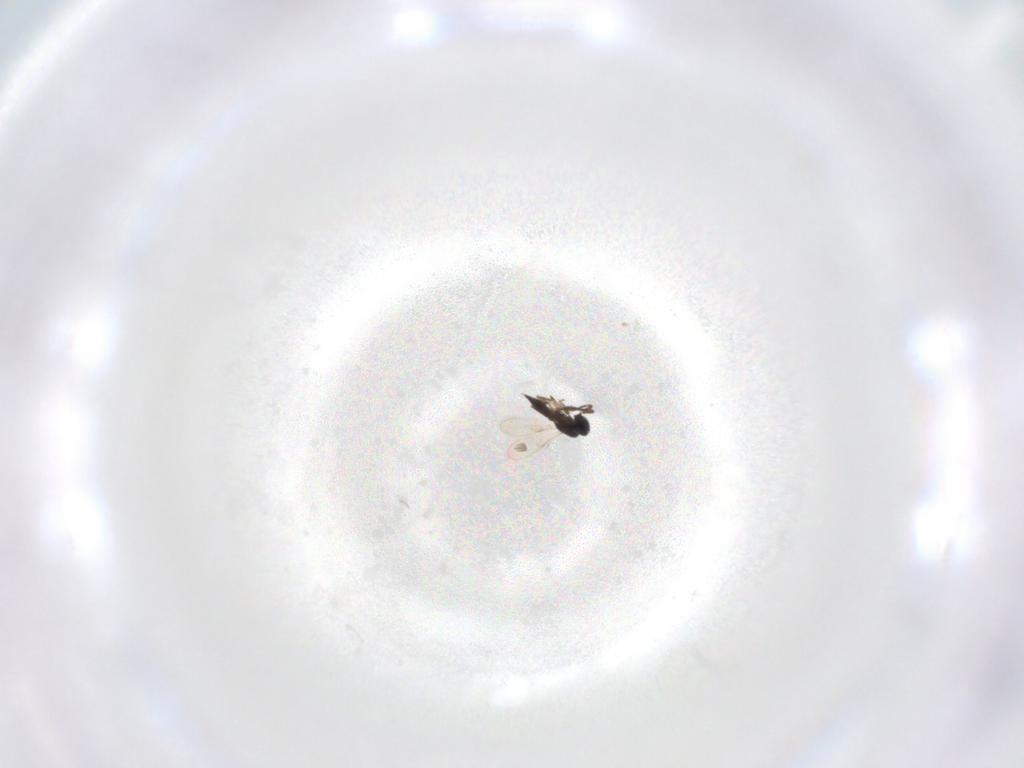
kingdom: Animalia
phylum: Arthropoda
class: Insecta
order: Hymenoptera
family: Scelionidae
